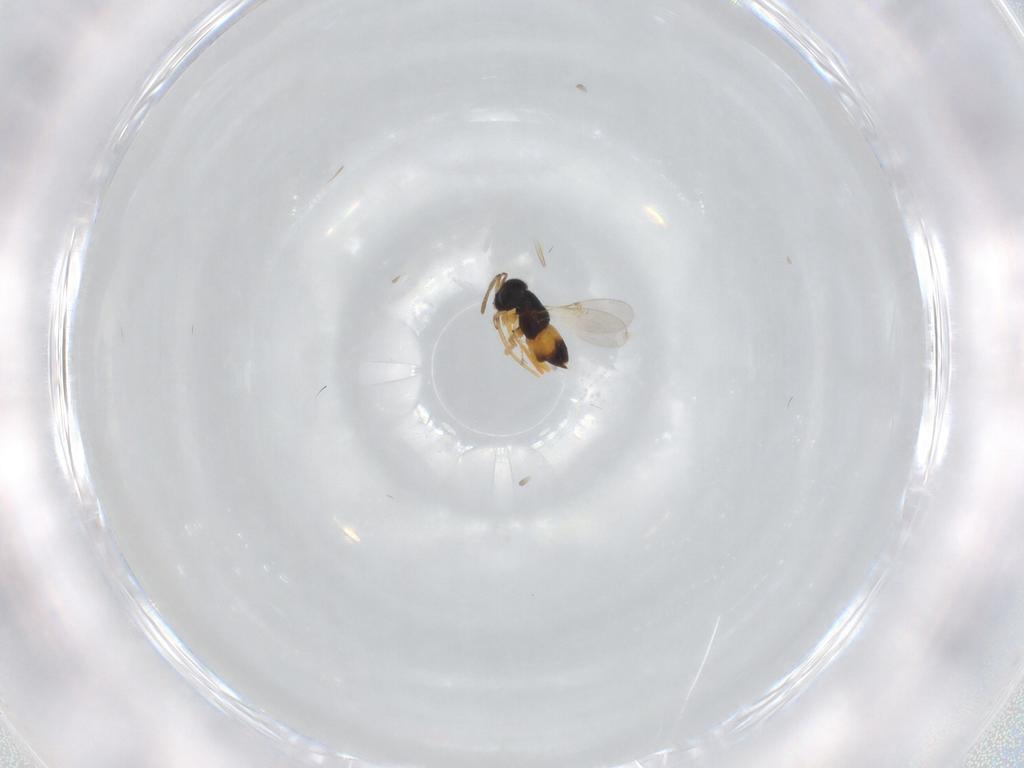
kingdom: Animalia
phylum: Arthropoda
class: Insecta
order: Hymenoptera
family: Encyrtidae
